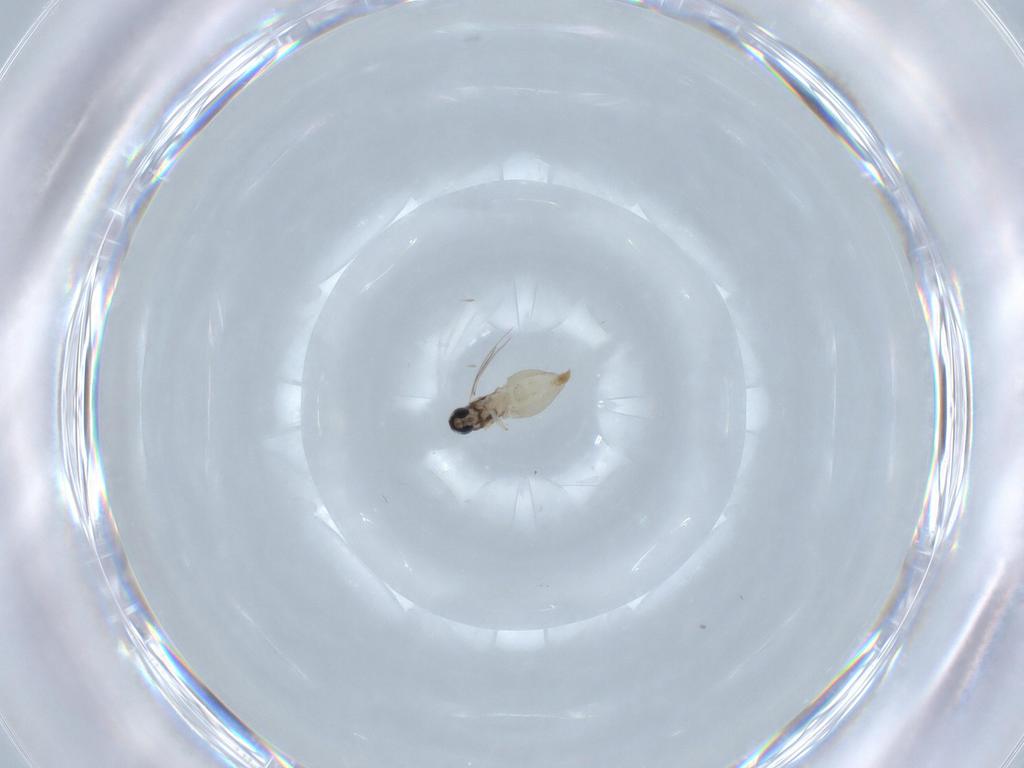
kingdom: Animalia
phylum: Arthropoda
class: Insecta
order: Diptera
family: Cecidomyiidae
